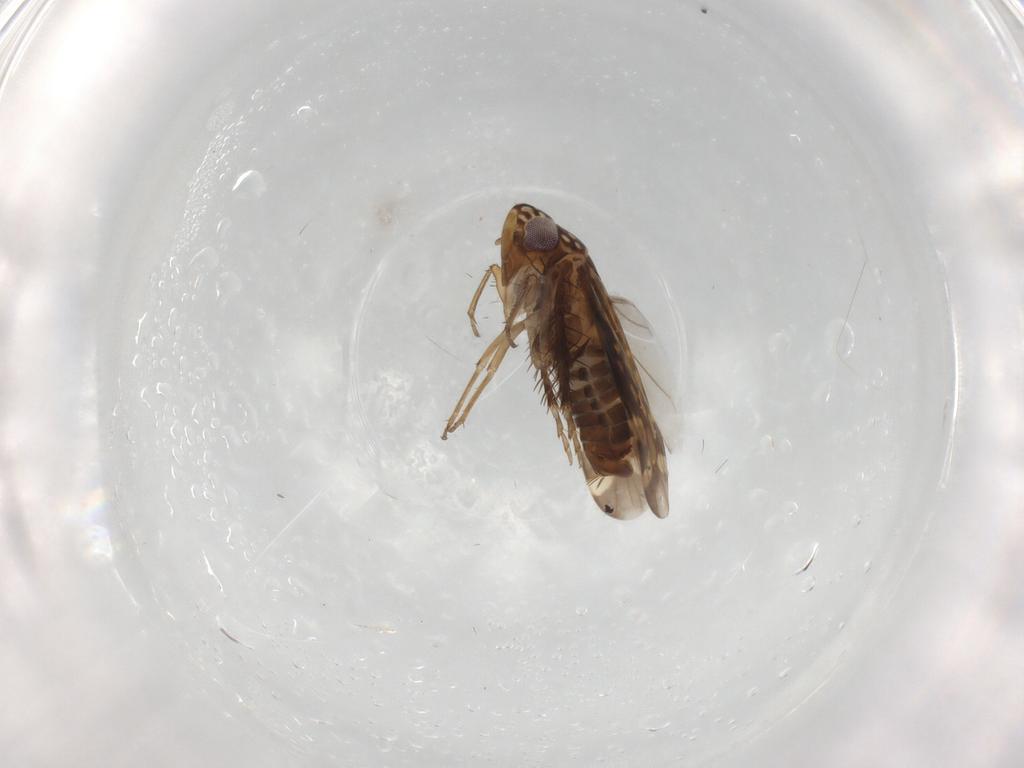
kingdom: Animalia
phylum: Arthropoda
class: Insecta
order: Hemiptera
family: Cicadellidae
